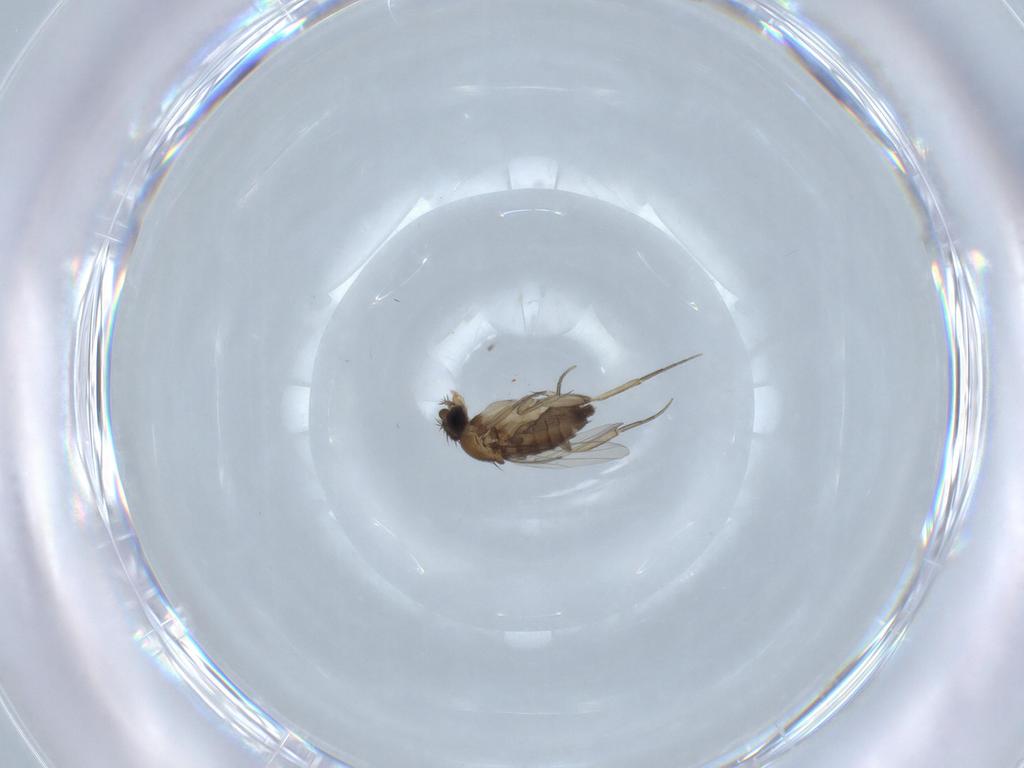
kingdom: Animalia
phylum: Arthropoda
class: Insecta
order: Diptera
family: Phoridae
